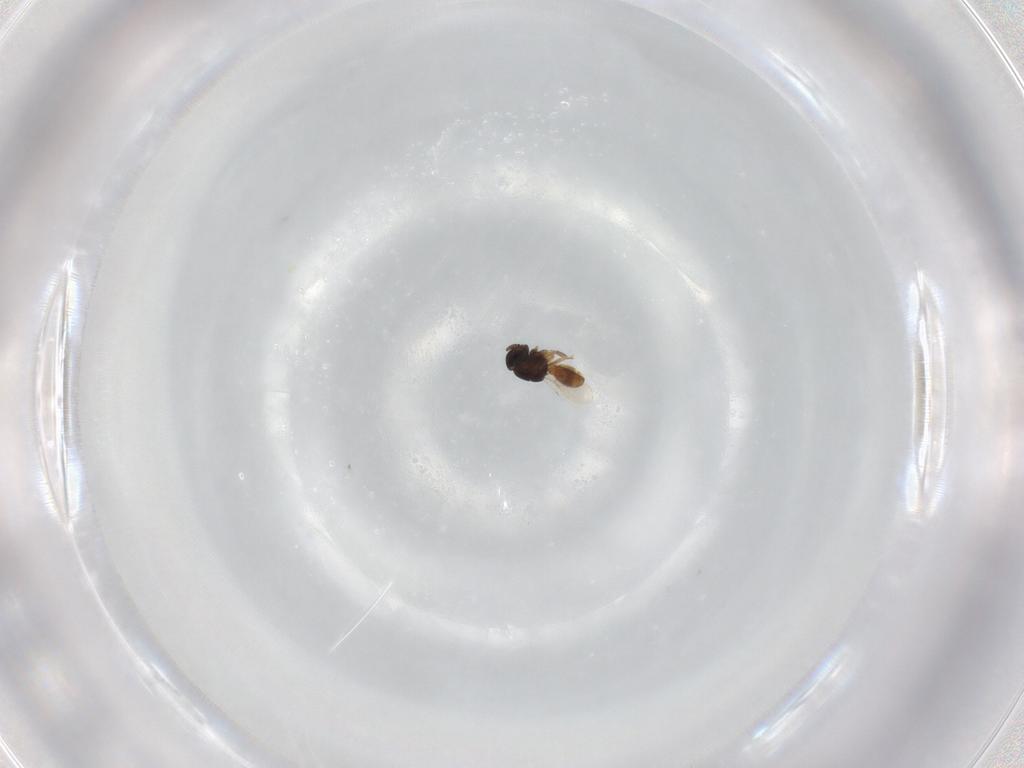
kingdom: Animalia
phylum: Arthropoda
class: Insecta
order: Hymenoptera
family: Scelionidae
